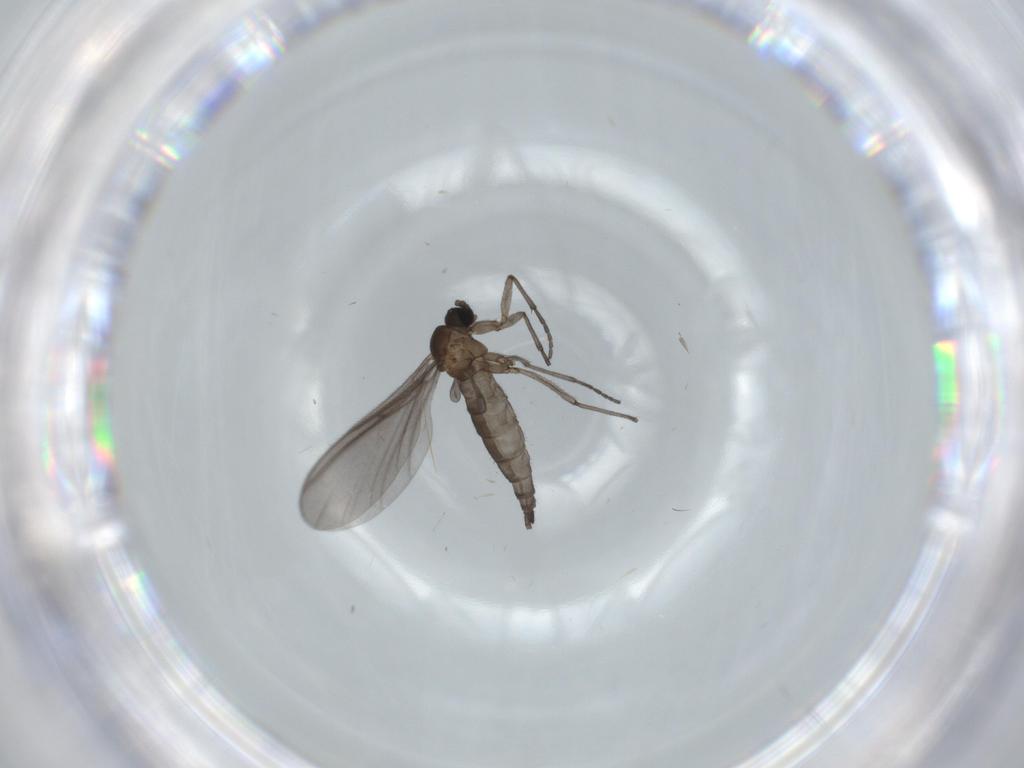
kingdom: Animalia
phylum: Arthropoda
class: Insecta
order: Diptera
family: Sciaridae
